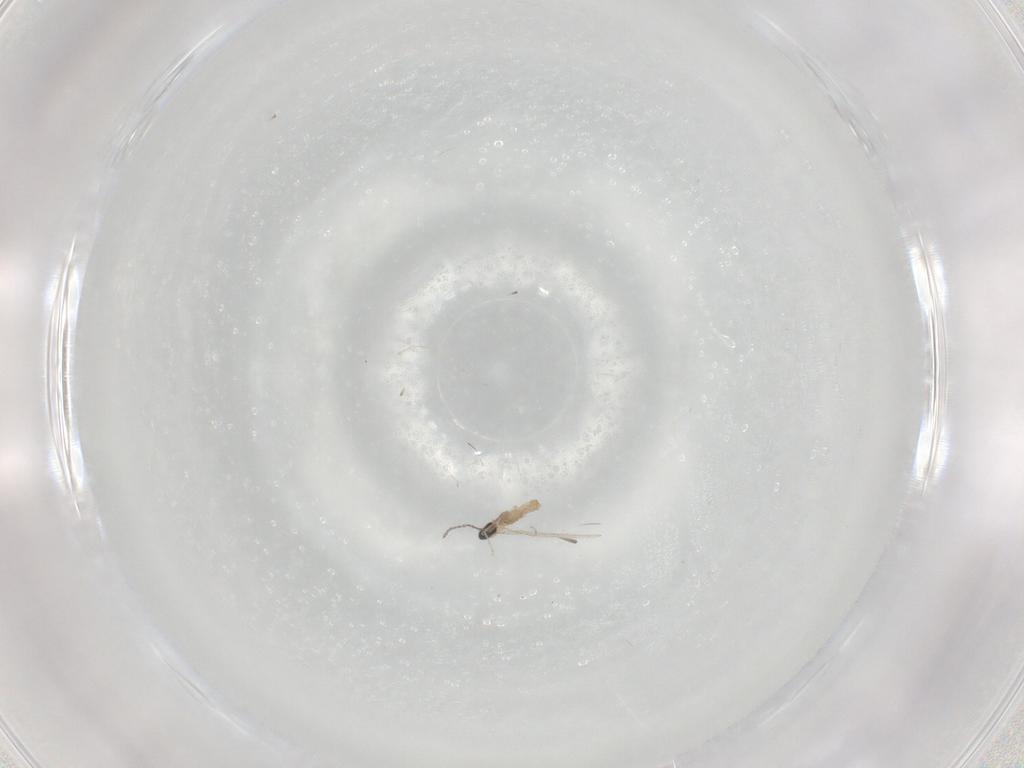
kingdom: Animalia
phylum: Arthropoda
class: Insecta
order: Diptera
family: Cecidomyiidae
